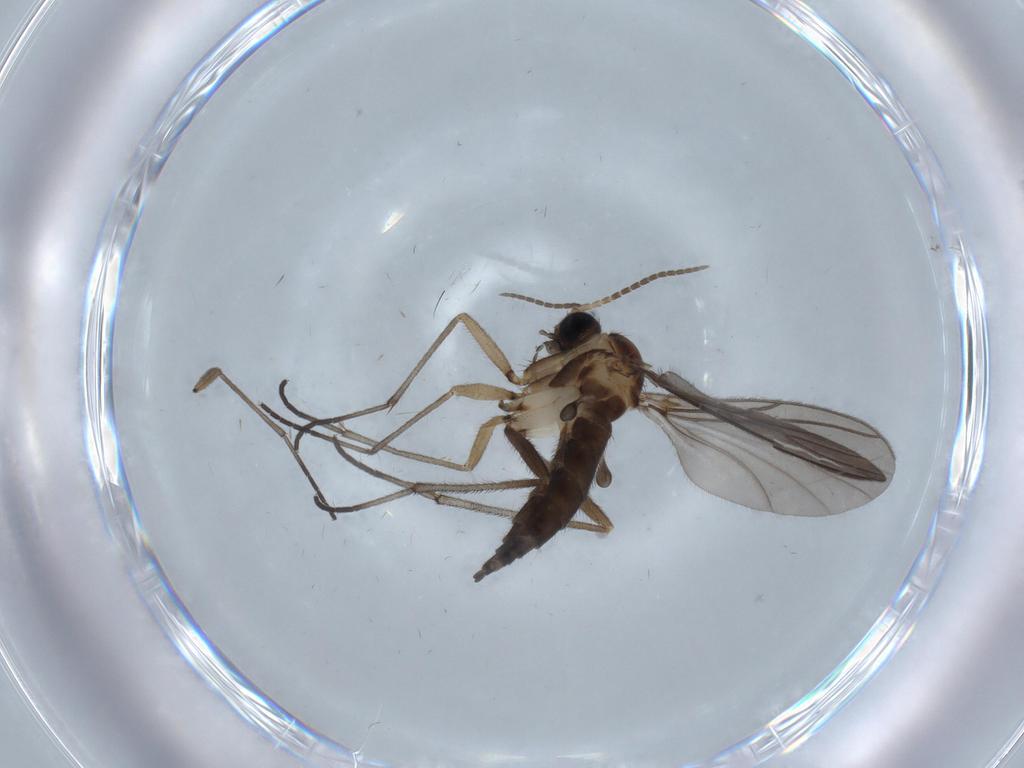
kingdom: Animalia
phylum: Arthropoda
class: Insecta
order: Diptera
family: Sciaridae
